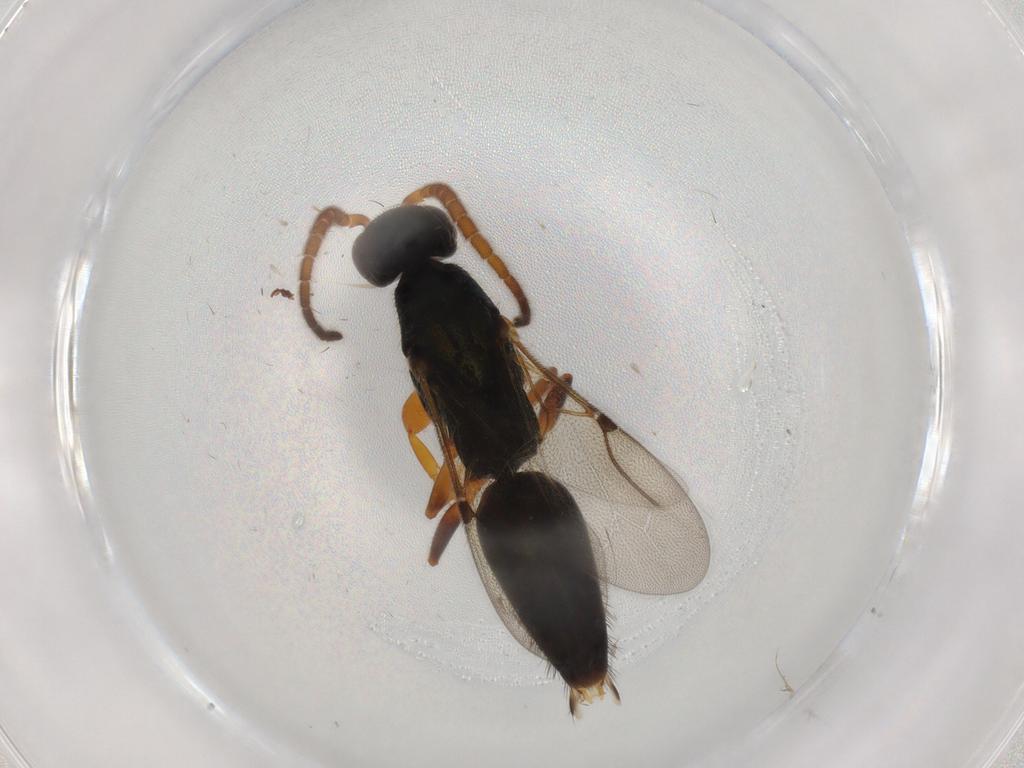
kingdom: Animalia
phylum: Arthropoda
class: Insecta
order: Hymenoptera
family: Bethylidae
